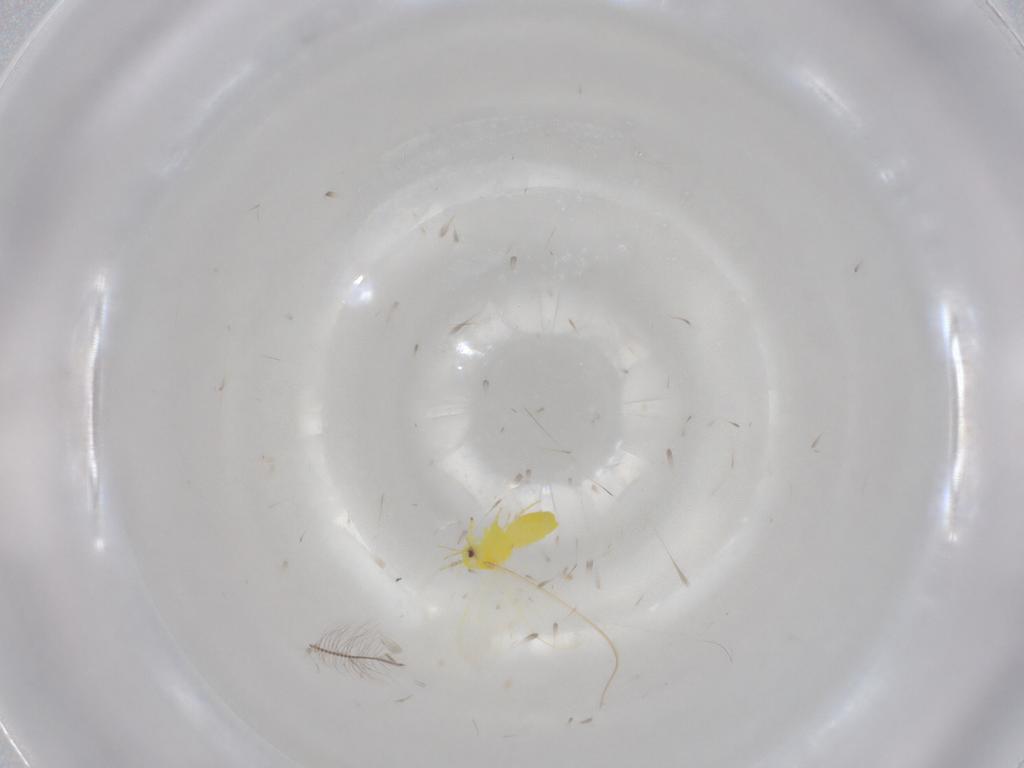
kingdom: Animalia
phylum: Arthropoda
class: Insecta
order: Hemiptera
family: Aleyrodidae
